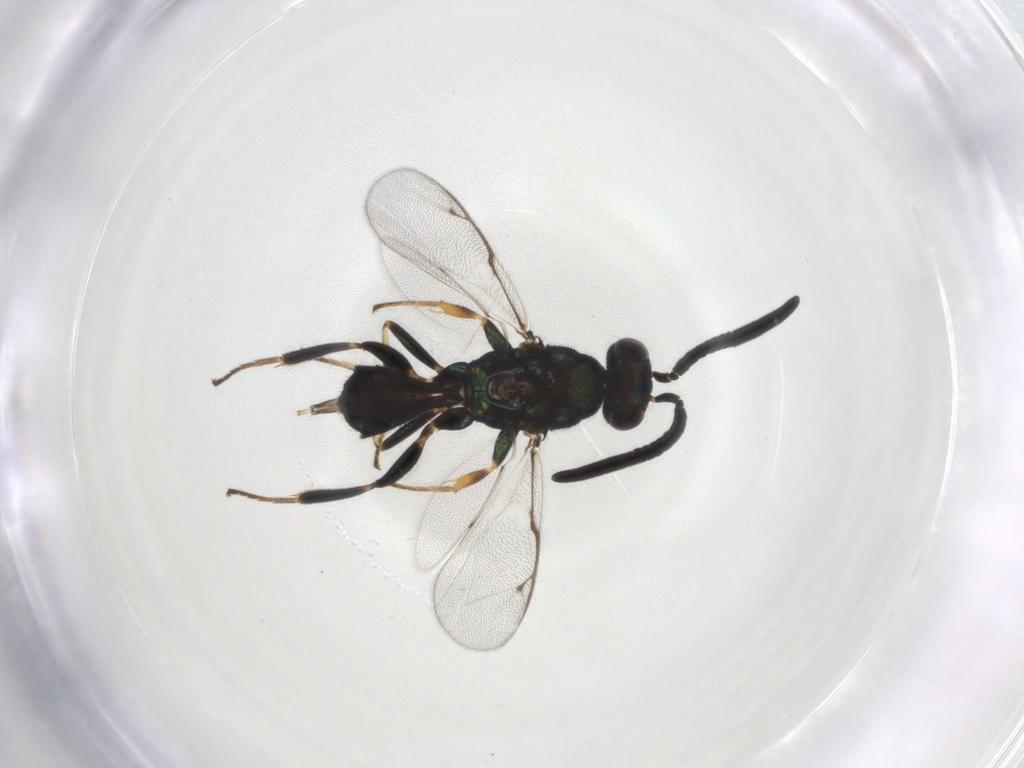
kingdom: Animalia
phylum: Arthropoda
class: Insecta
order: Hymenoptera
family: Eupelmidae
